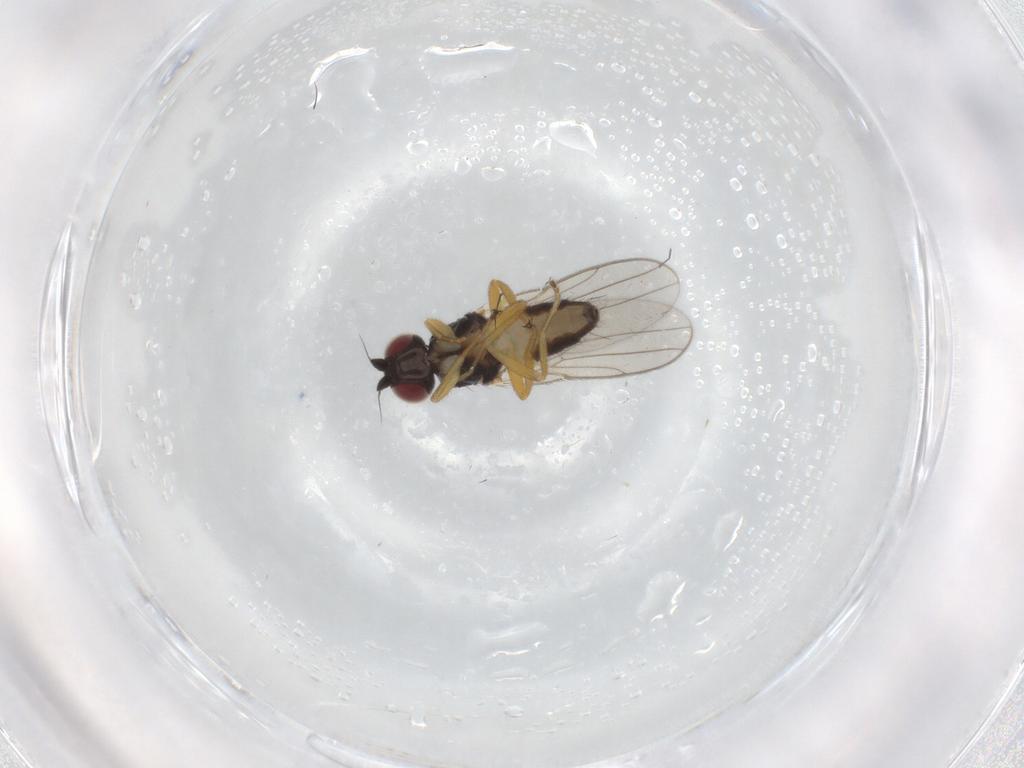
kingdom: Animalia
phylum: Arthropoda
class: Insecta
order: Diptera
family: Chloropidae
